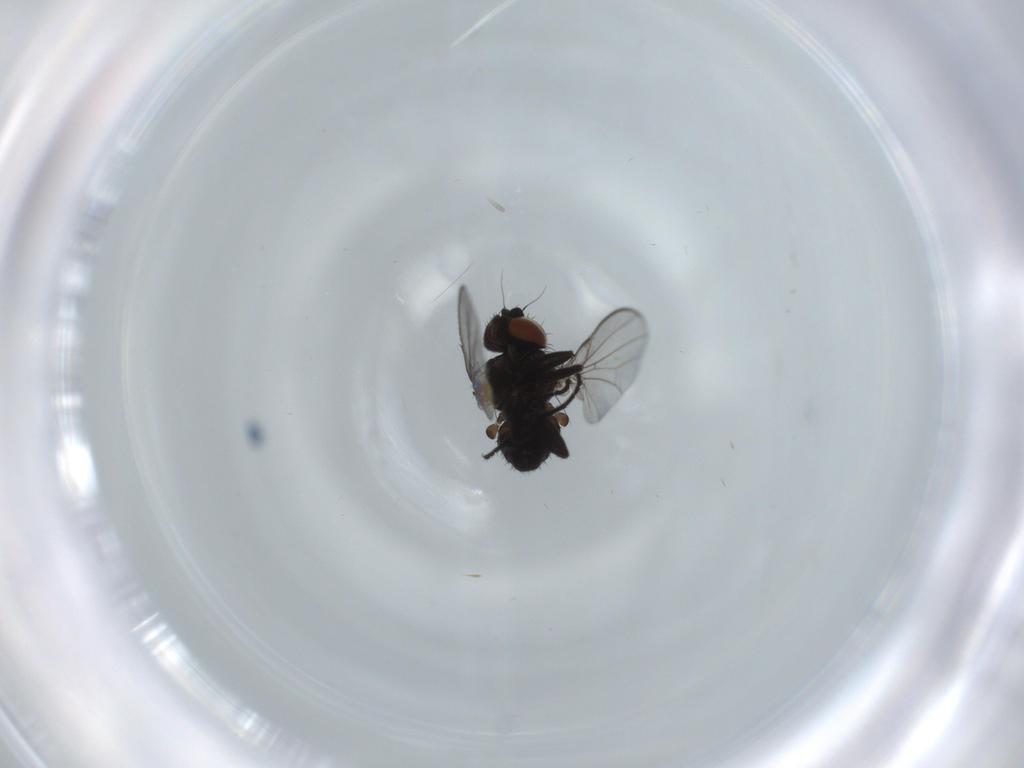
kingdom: Animalia
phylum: Arthropoda
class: Insecta
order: Diptera
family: Milichiidae
